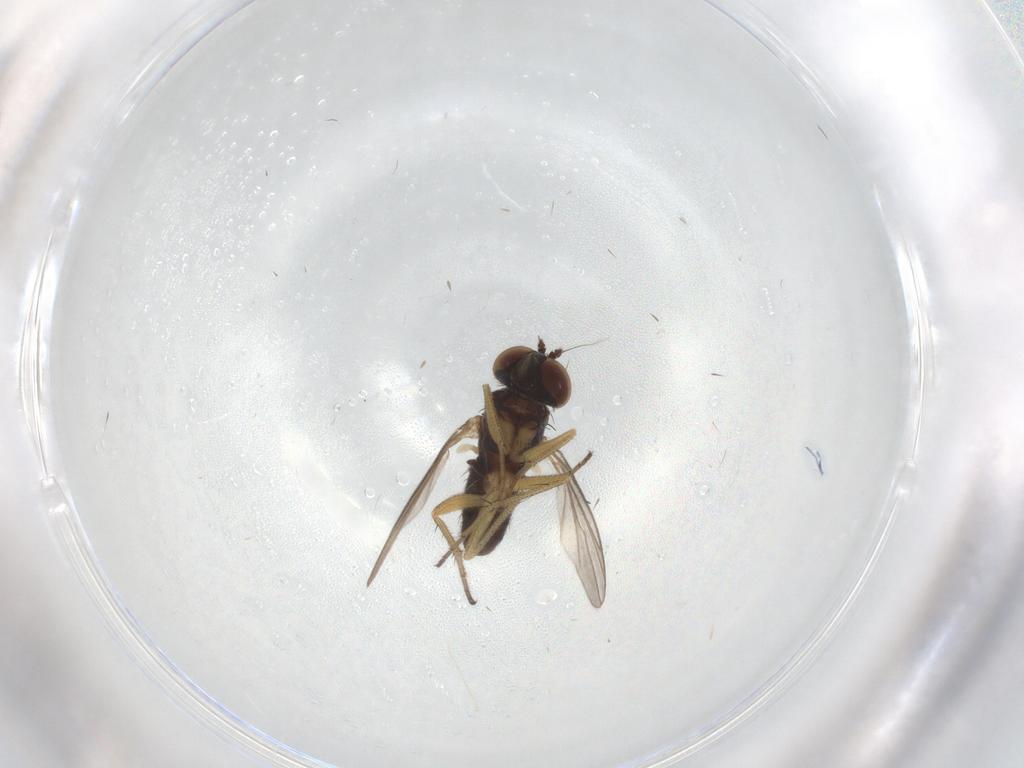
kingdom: Animalia
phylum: Arthropoda
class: Insecta
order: Diptera
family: Dolichopodidae
